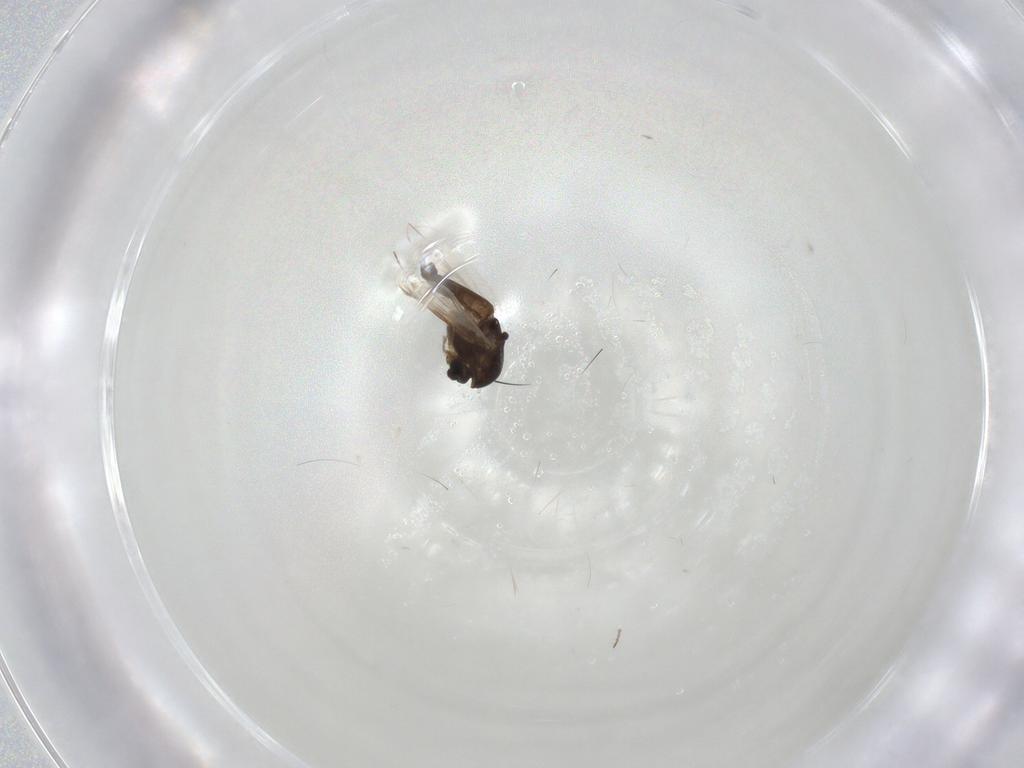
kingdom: Animalia
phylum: Arthropoda
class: Insecta
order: Diptera
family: Chironomidae
